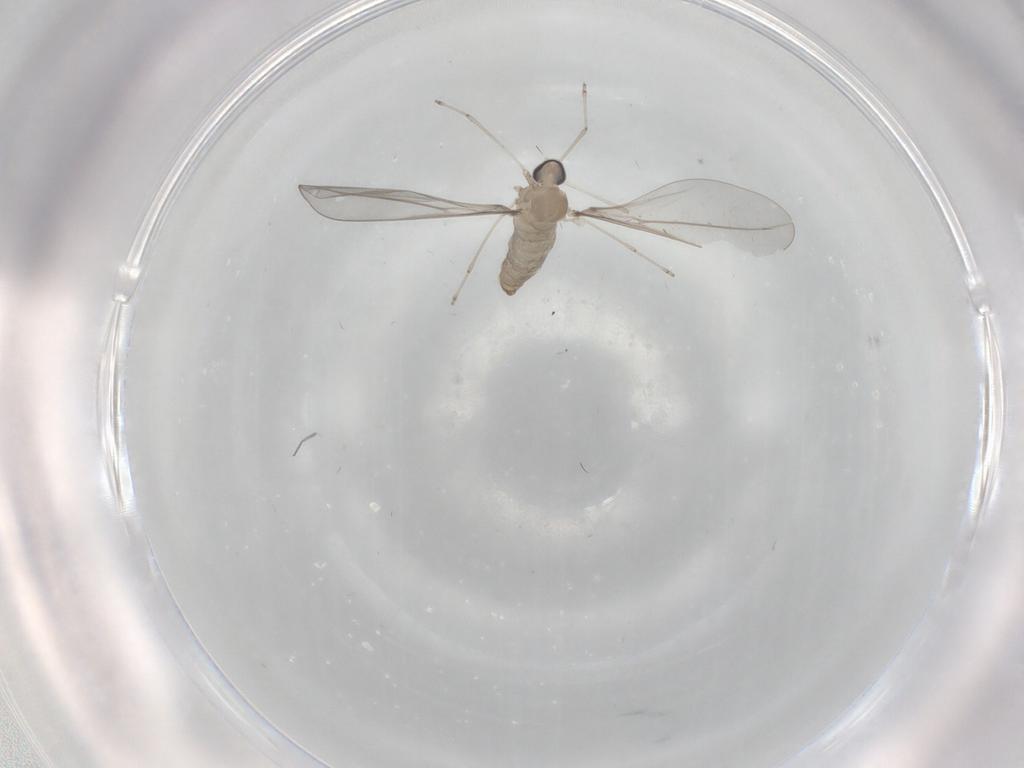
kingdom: Animalia
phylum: Arthropoda
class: Insecta
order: Diptera
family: Cecidomyiidae
